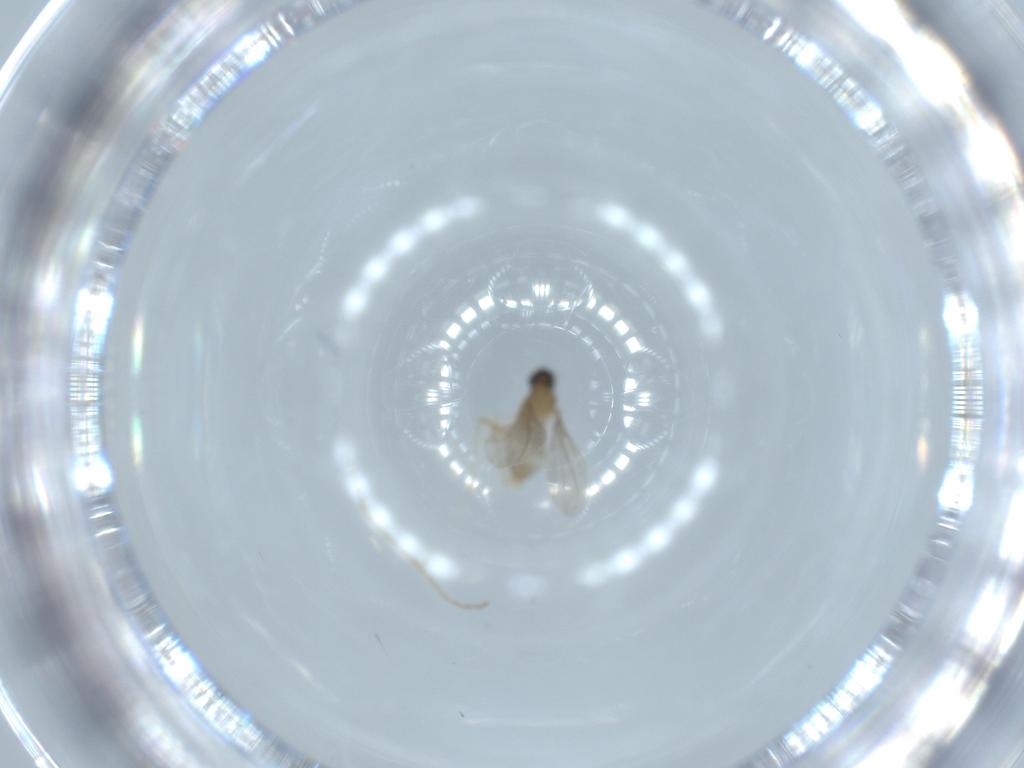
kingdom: Animalia
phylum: Arthropoda
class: Insecta
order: Diptera
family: Cecidomyiidae
